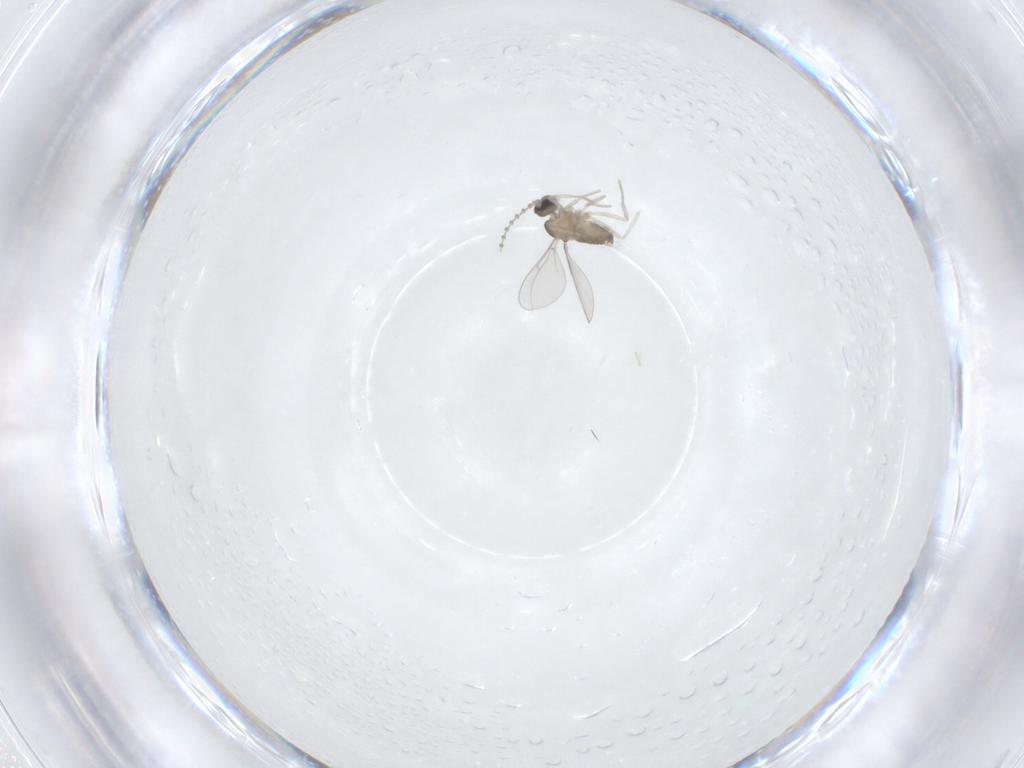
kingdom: Animalia
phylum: Arthropoda
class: Insecta
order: Diptera
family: Cecidomyiidae
